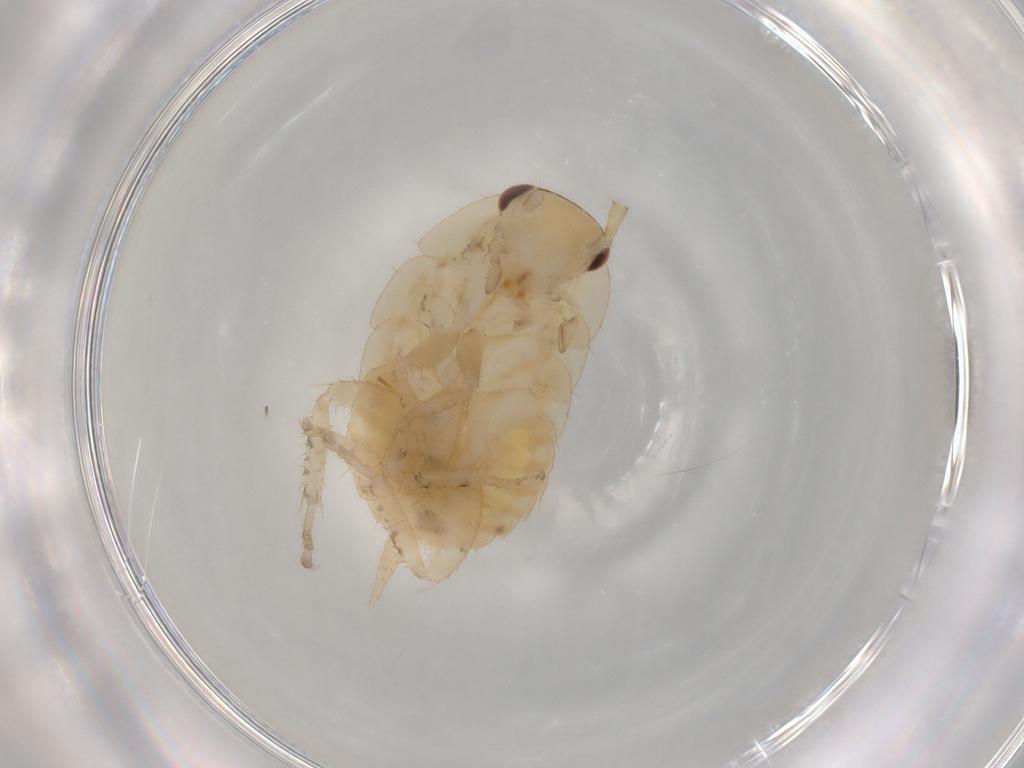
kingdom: Animalia
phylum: Arthropoda
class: Insecta
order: Blattodea
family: Ectobiidae
